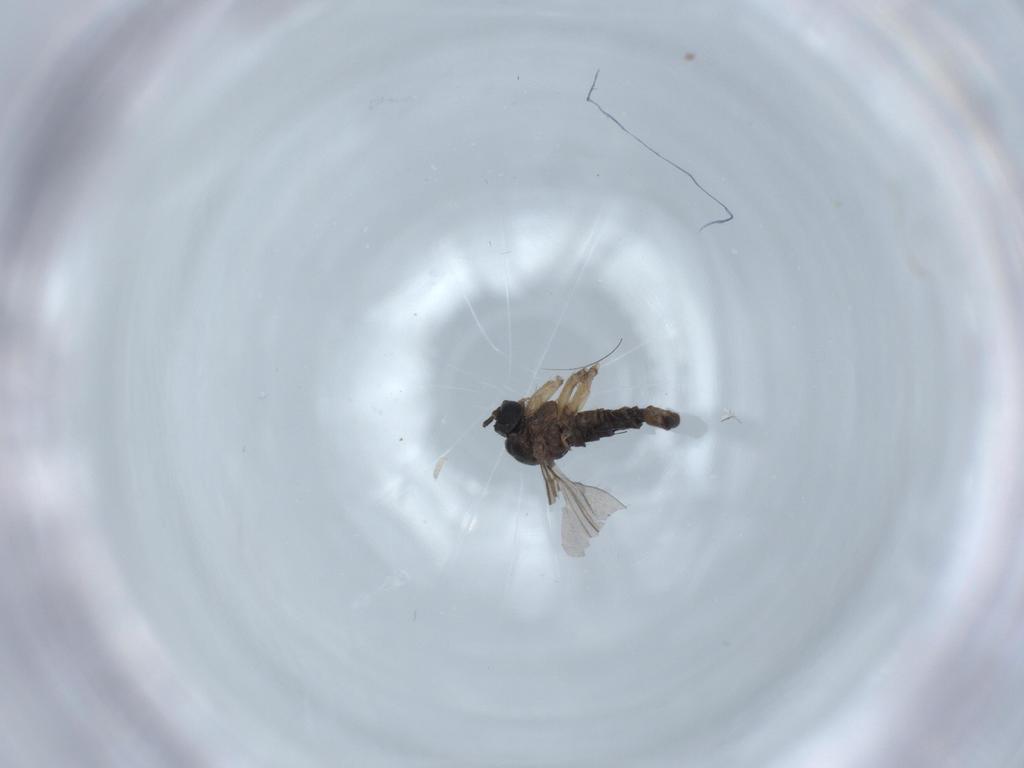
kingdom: Animalia
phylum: Arthropoda
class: Insecta
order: Diptera
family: Sciaridae
